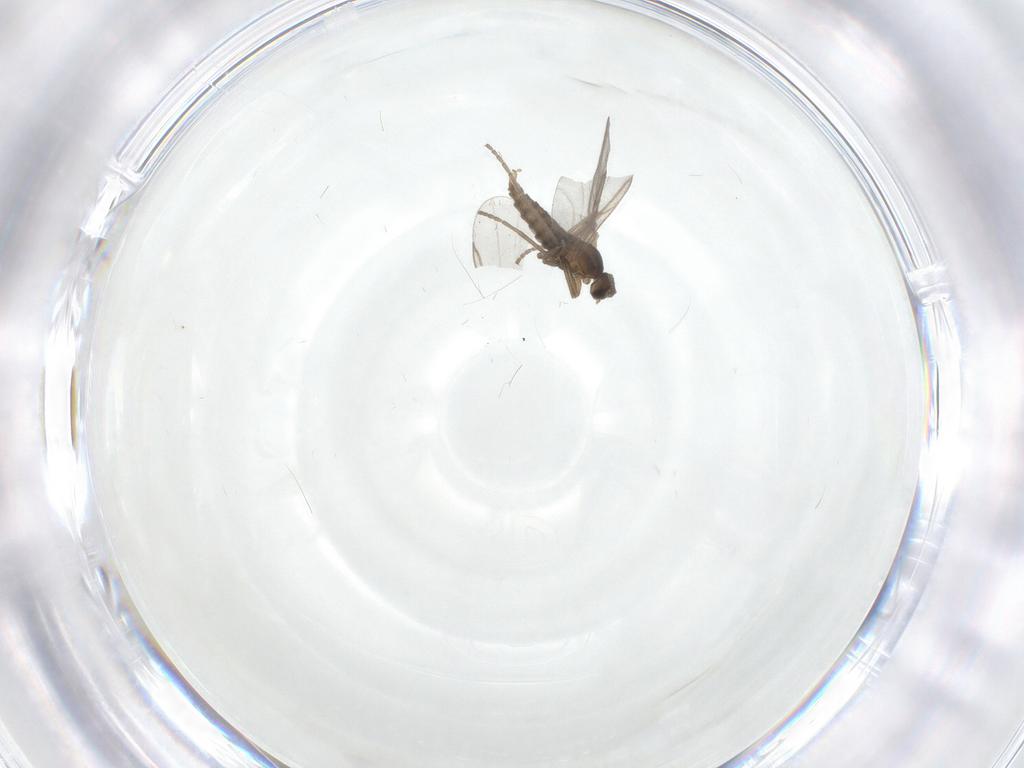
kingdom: Animalia
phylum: Arthropoda
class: Insecta
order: Diptera
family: Cecidomyiidae
